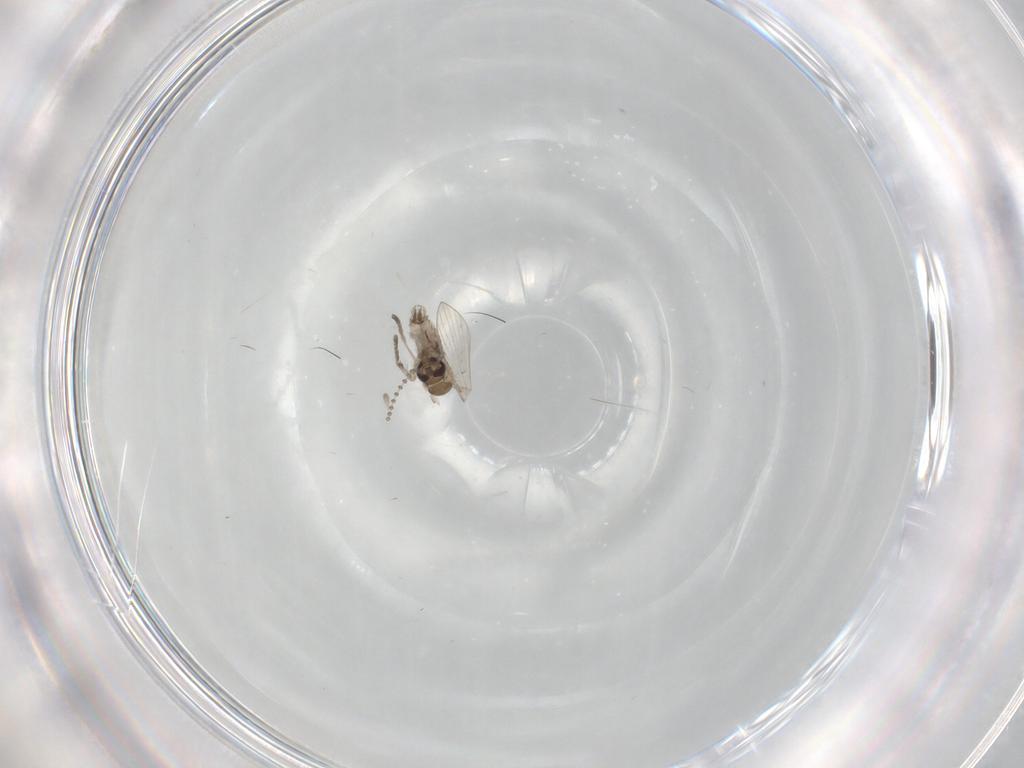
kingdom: Animalia
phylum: Arthropoda
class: Insecta
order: Diptera
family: Psychodidae
